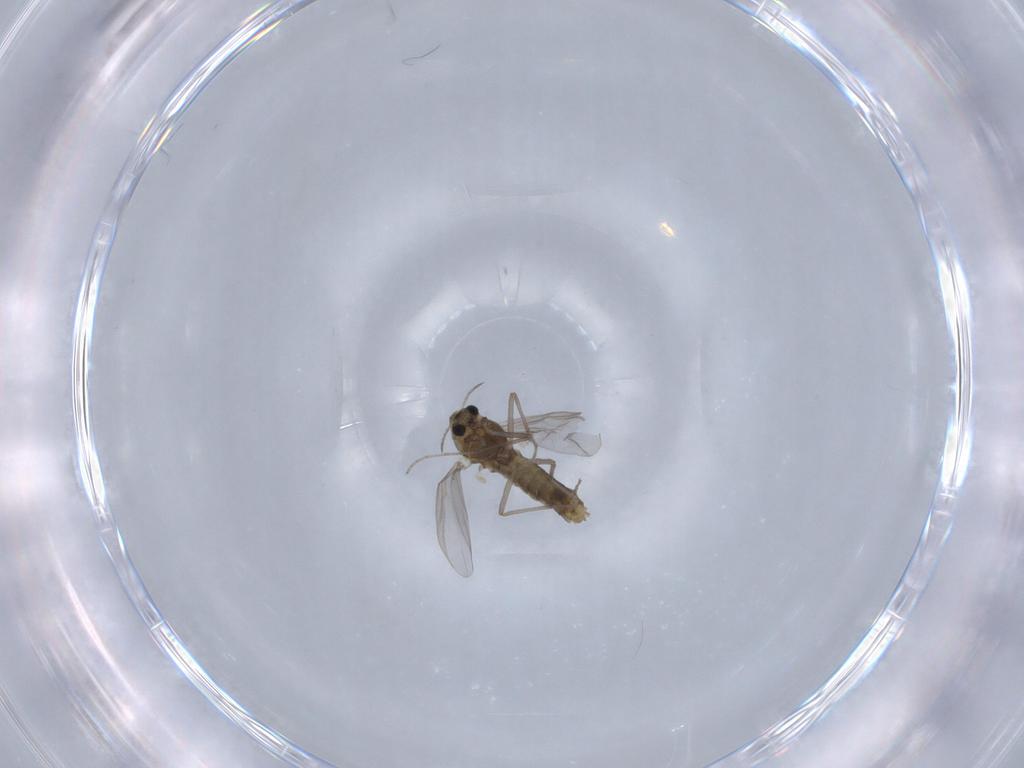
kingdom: Animalia
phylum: Arthropoda
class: Insecta
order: Diptera
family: Chironomidae
